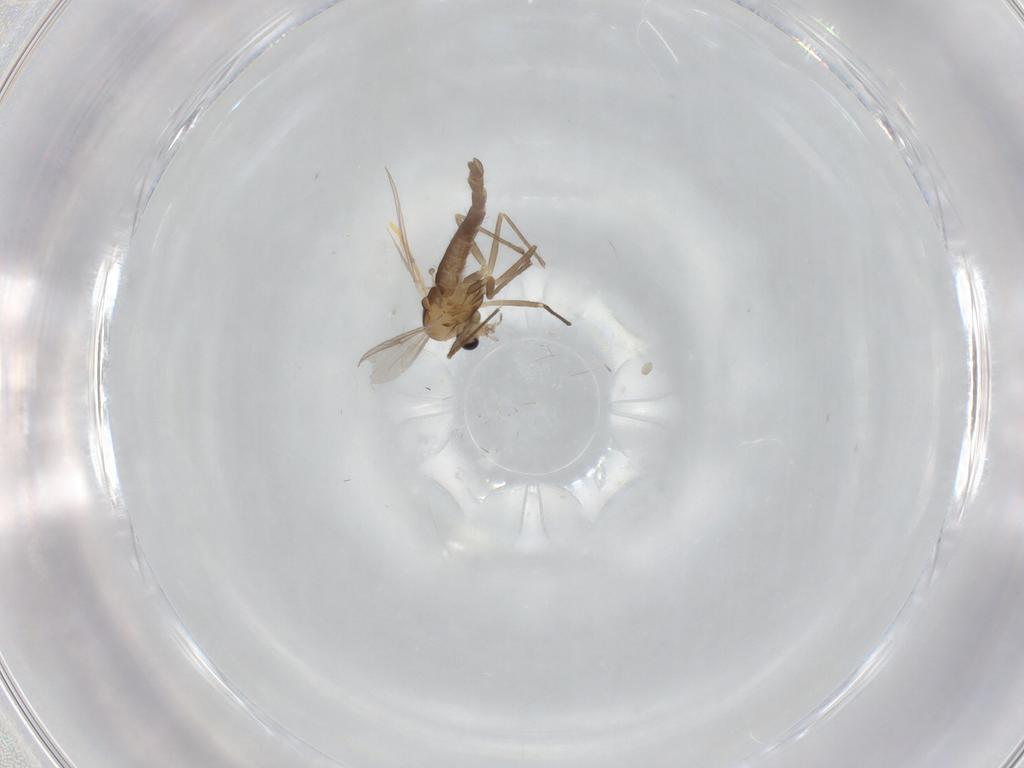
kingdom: Animalia
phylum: Arthropoda
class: Insecta
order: Diptera
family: Chironomidae
